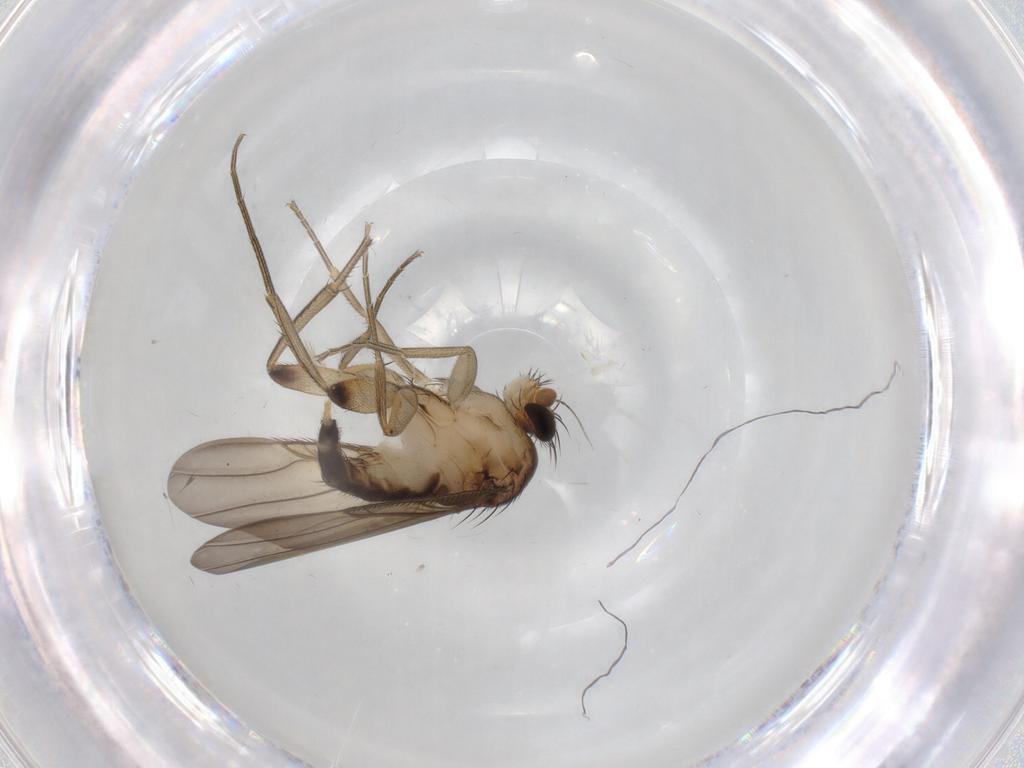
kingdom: Animalia
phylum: Arthropoda
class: Insecta
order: Diptera
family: Phoridae
